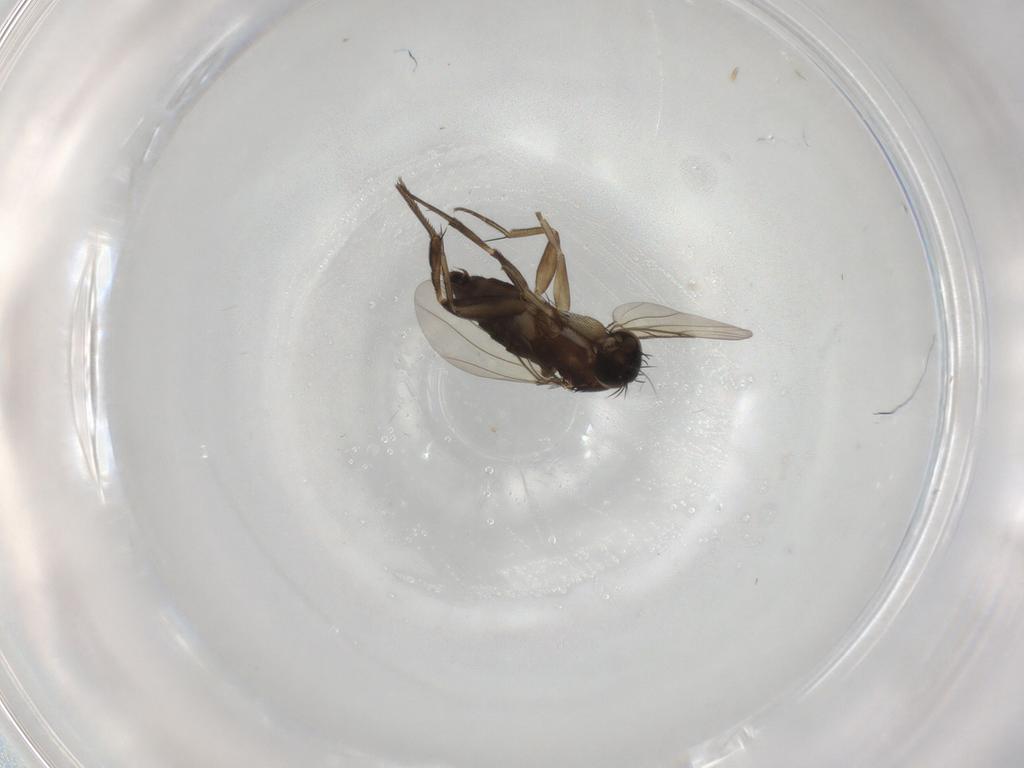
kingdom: Animalia
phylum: Arthropoda
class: Insecta
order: Diptera
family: Phoridae
